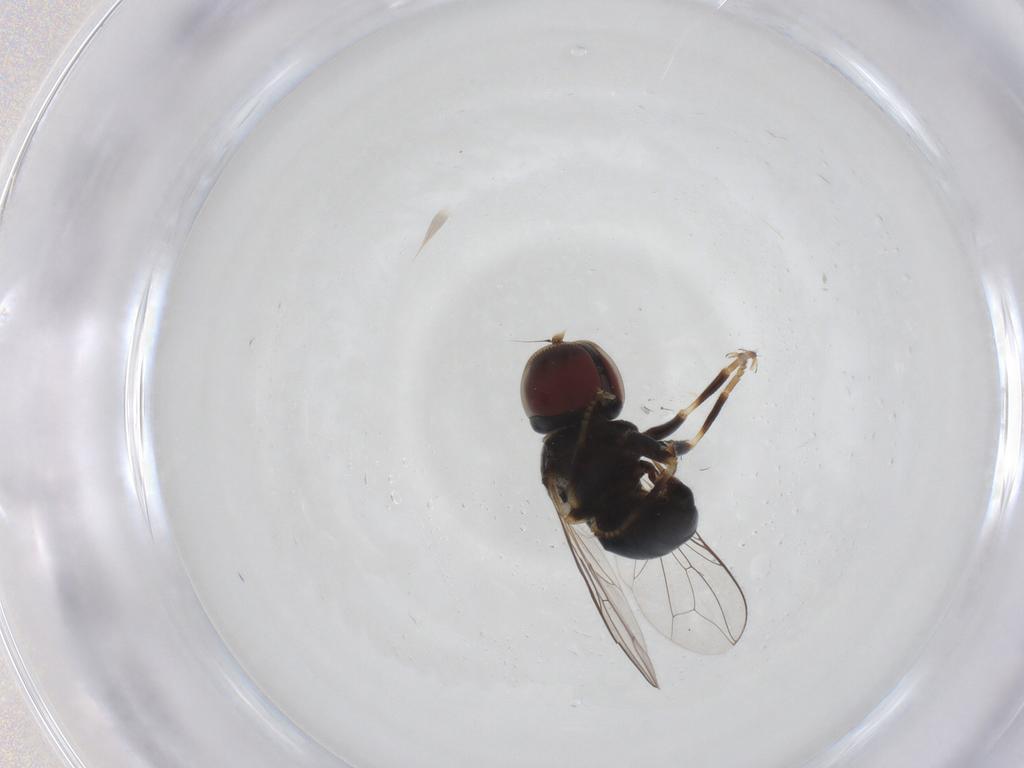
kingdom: Animalia
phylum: Arthropoda
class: Insecta
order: Diptera
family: Pipunculidae
